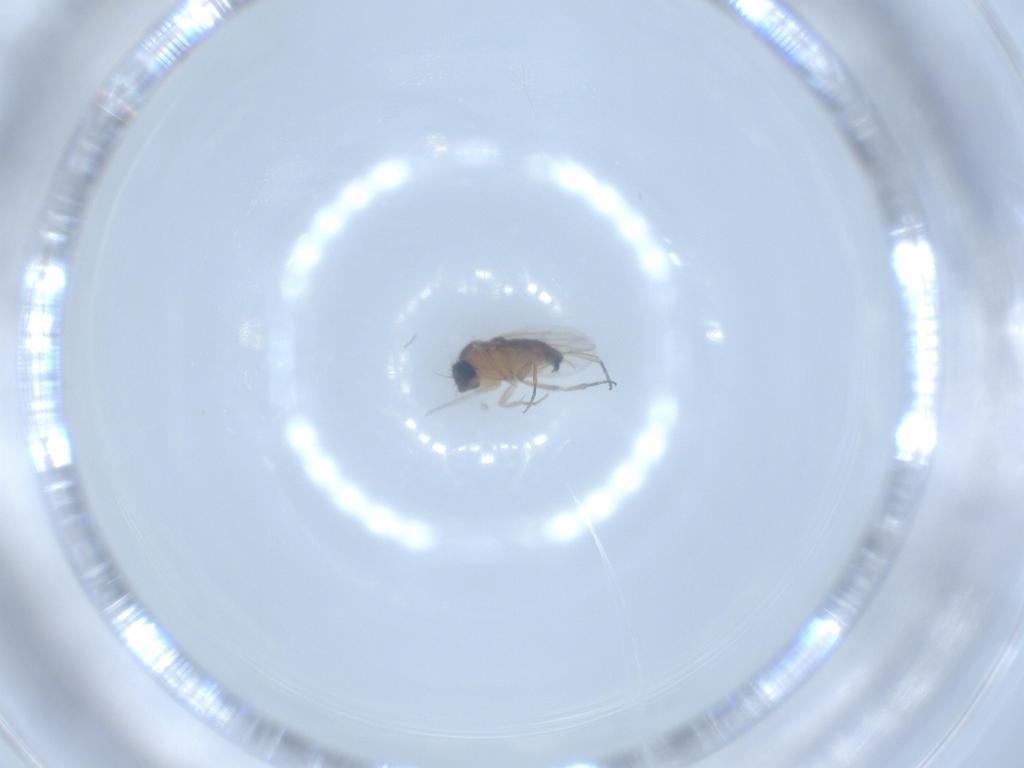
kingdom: Animalia
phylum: Arthropoda
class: Insecta
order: Diptera
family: Phoridae
